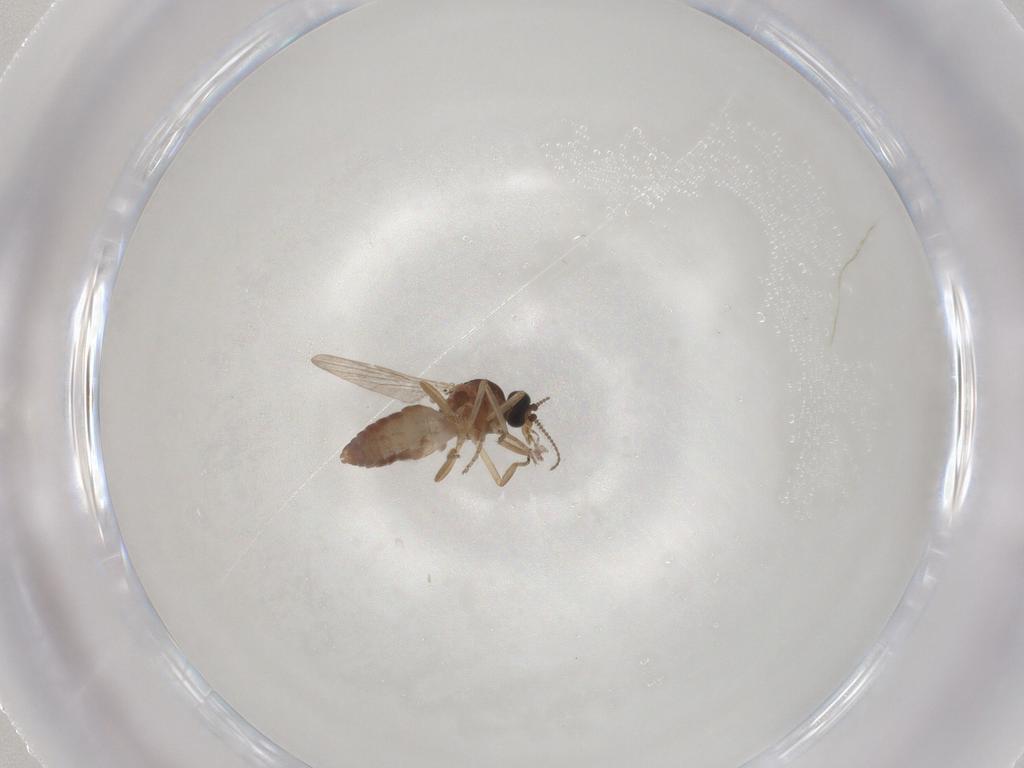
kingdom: Animalia
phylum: Arthropoda
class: Insecta
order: Diptera
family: Ceratopogonidae
